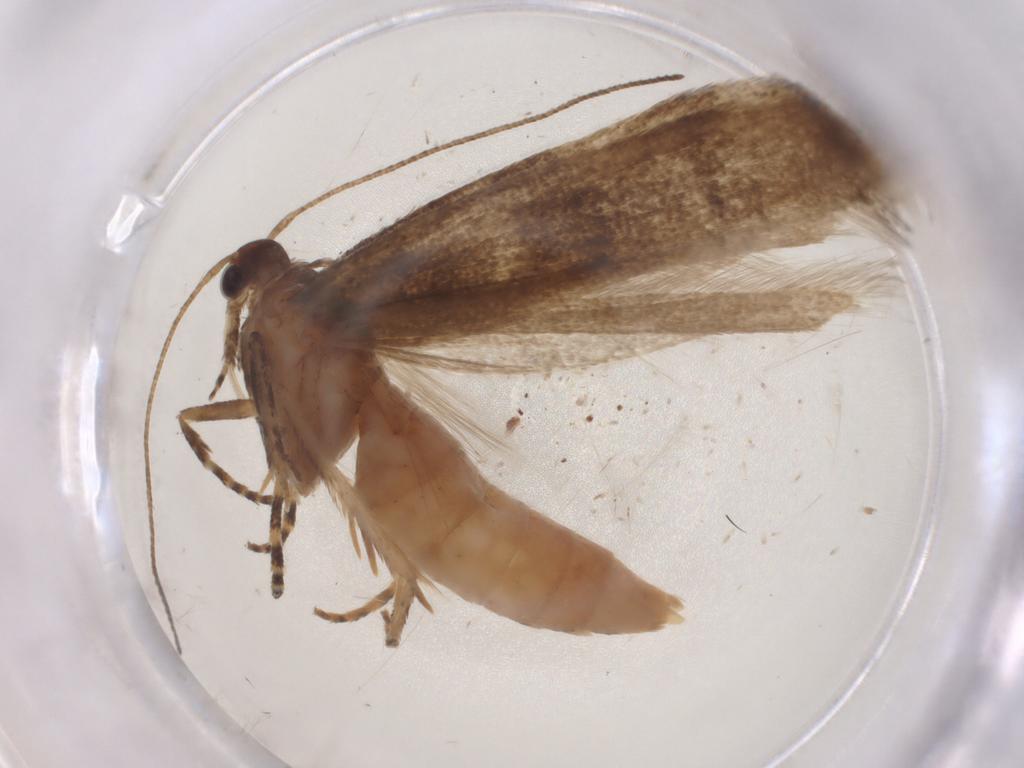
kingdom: Animalia
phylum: Arthropoda
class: Insecta
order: Lepidoptera
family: Gelechiidae
